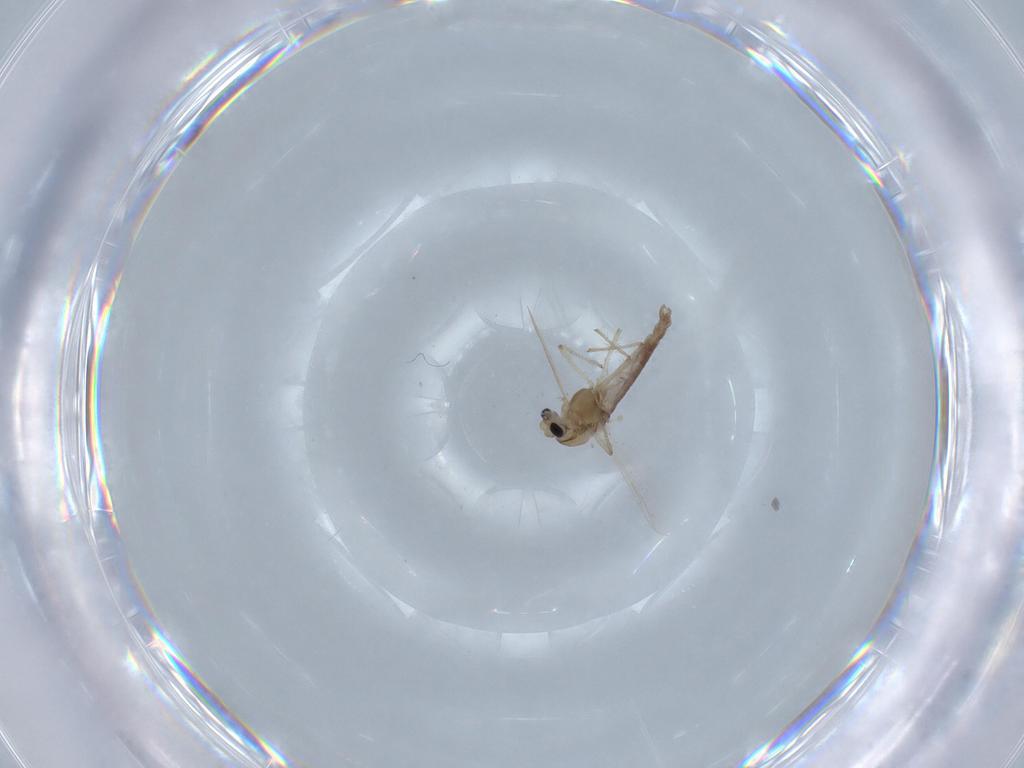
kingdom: Animalia
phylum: Arthropoda
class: Insecta
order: Diptera
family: Chironomidae
